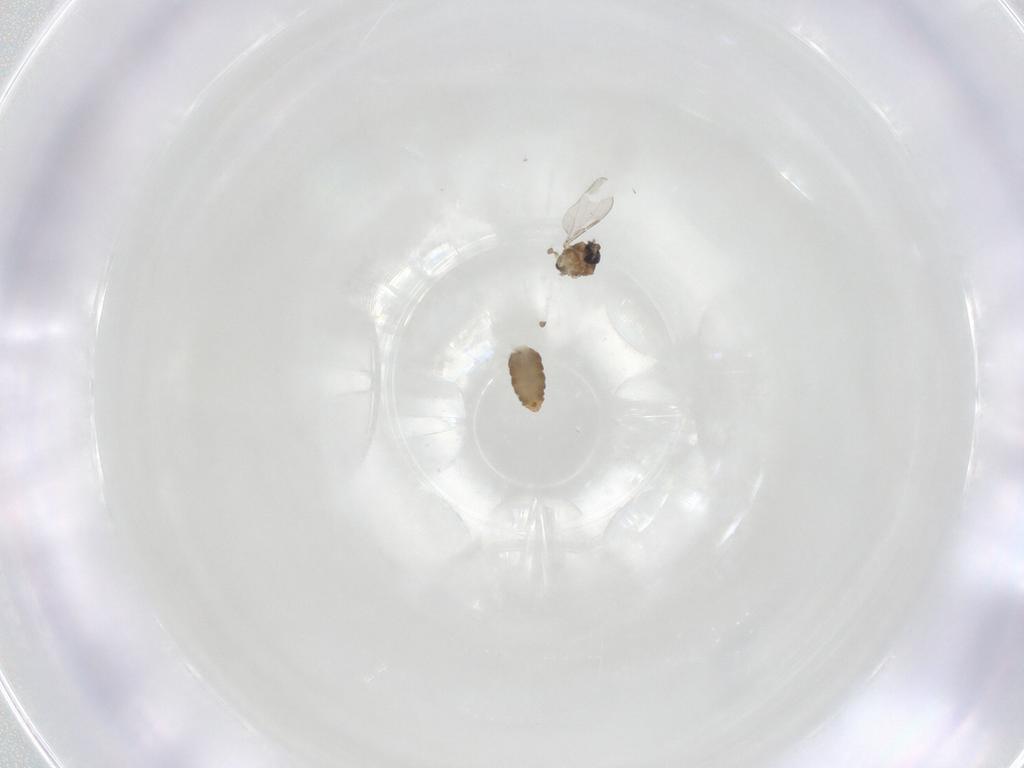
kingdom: Animalia
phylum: Arthropoda
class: Insecta
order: Diptera
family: Ceratopogonidae
